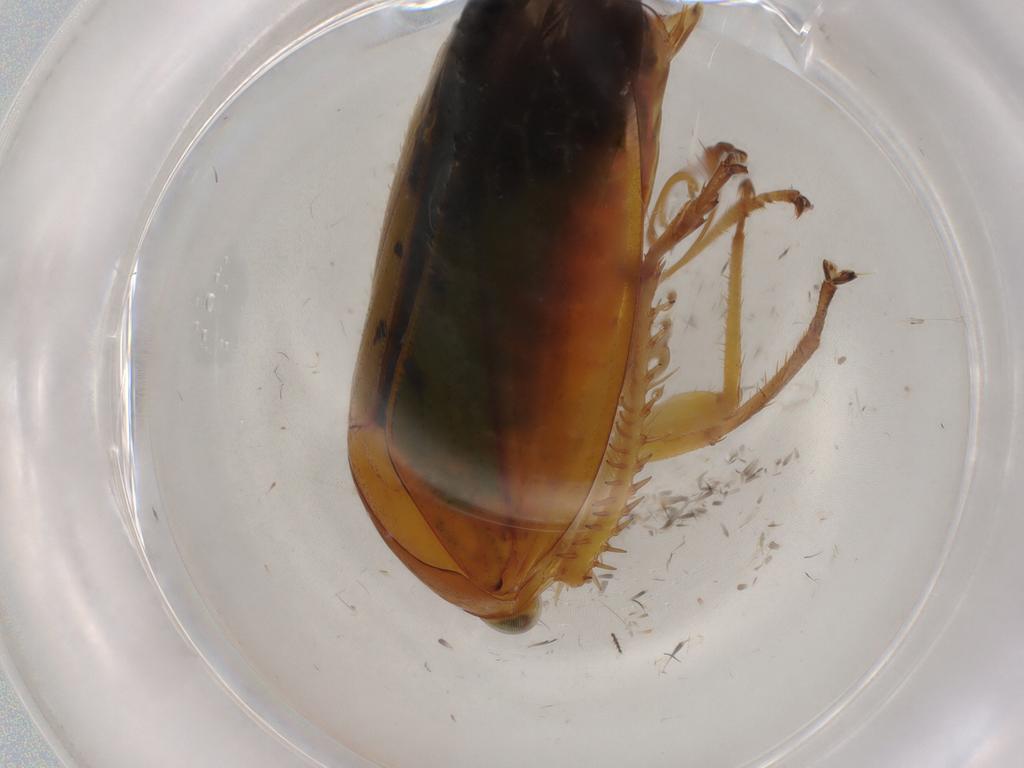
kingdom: Animalia
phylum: Arthropoda
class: Insecta
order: Hemiptera
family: Cicadellidae
